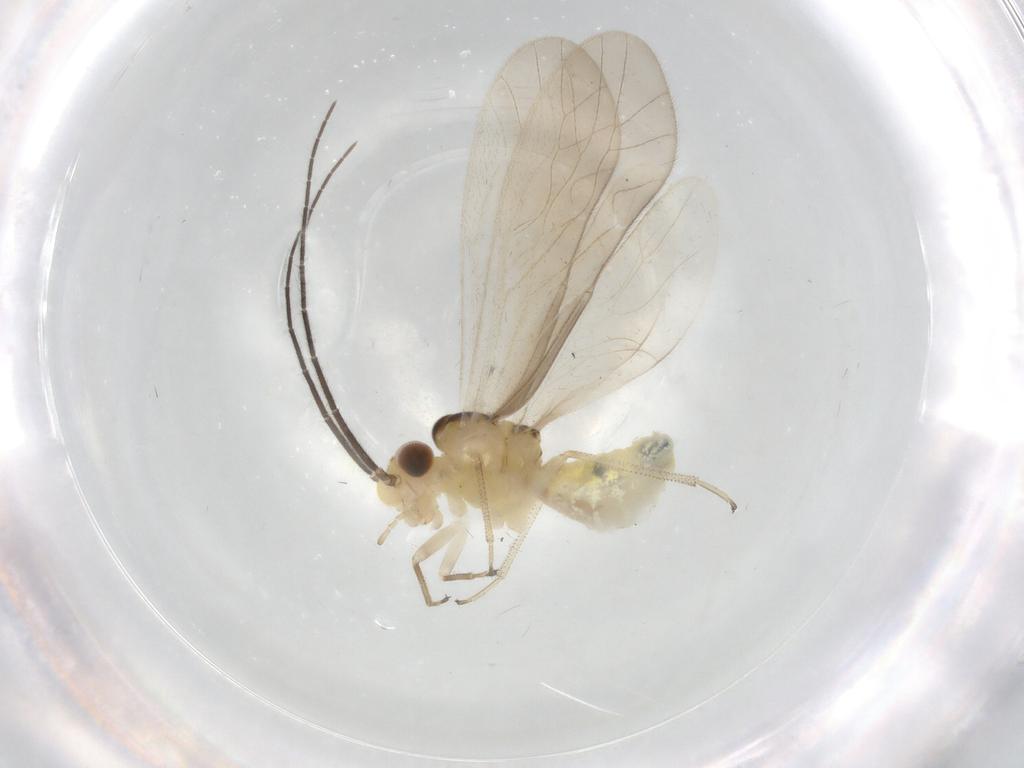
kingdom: Animalia
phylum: Arthropoda
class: Insecta
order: Psocodea
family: Caeciliusidae
